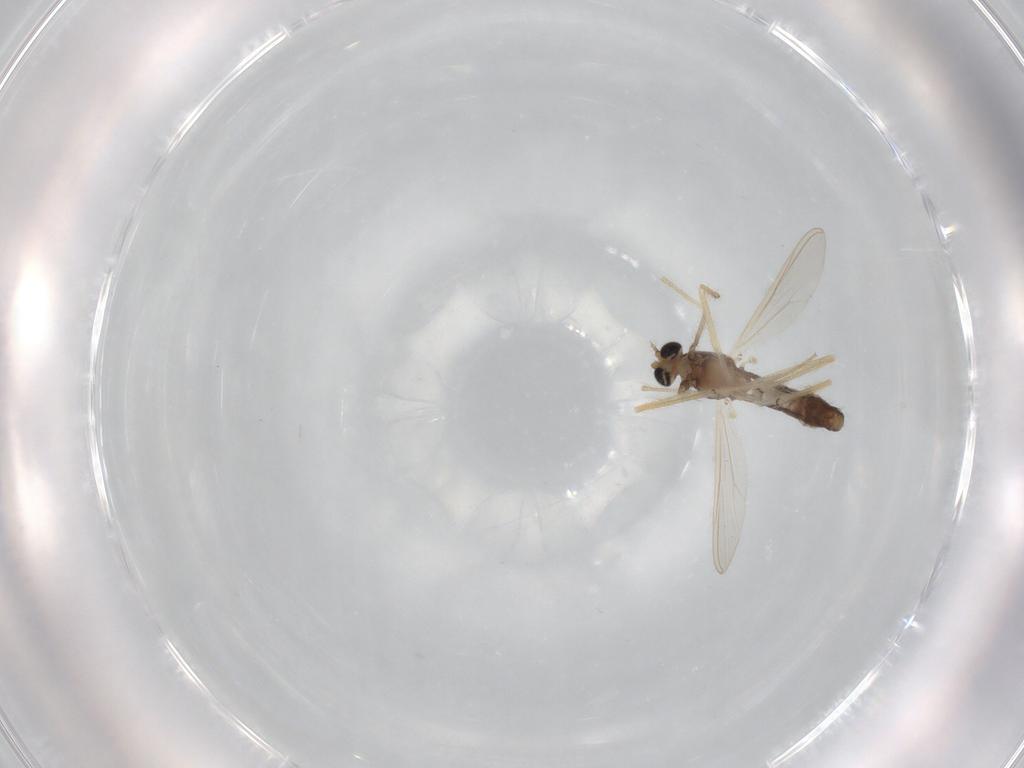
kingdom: Animalia
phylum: Arthropoda
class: Insecta
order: Diptera
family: Chironomidae
